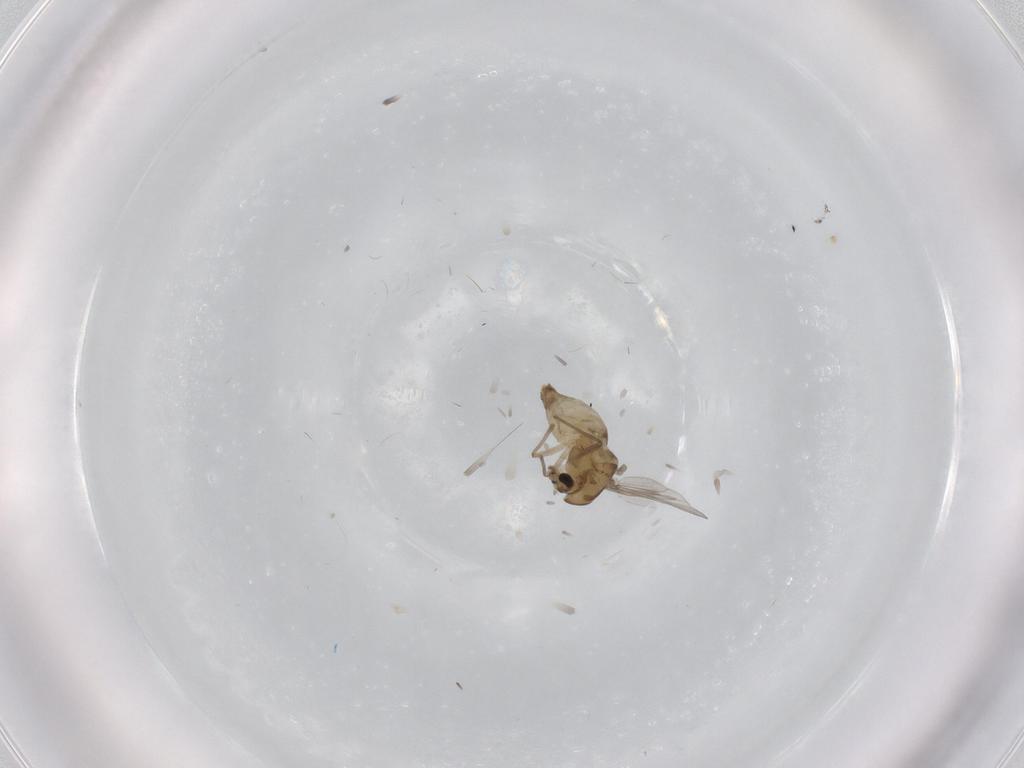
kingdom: Animalia
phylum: Arthropoda
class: Insecta
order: Diptera
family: Chironomidae
